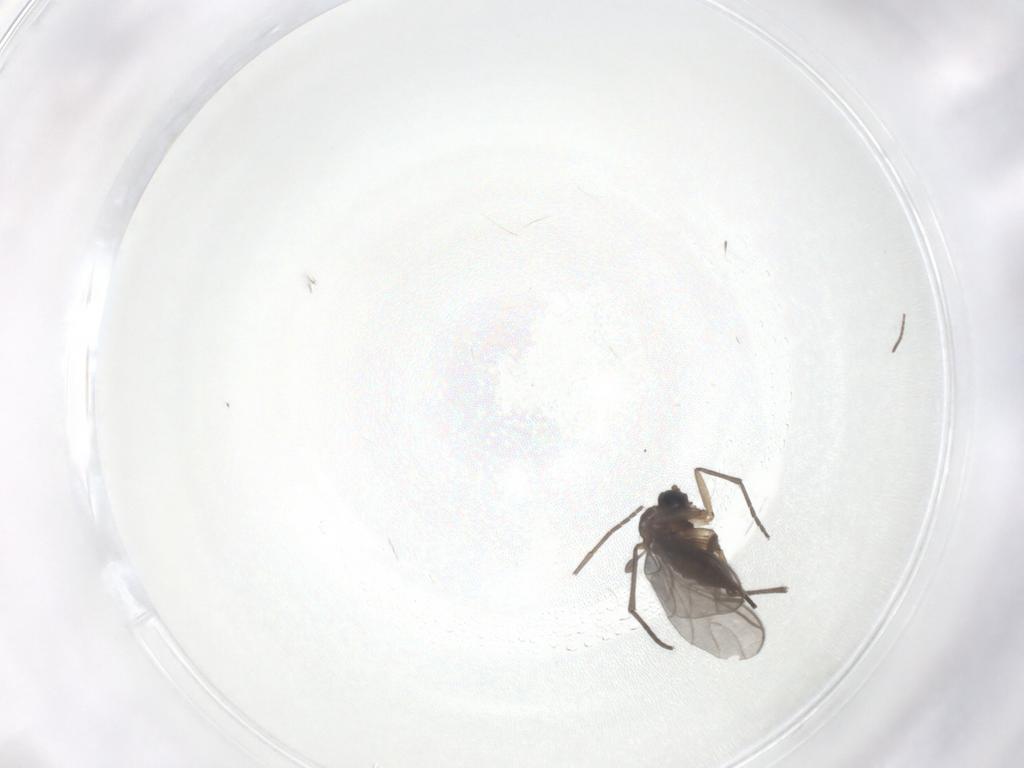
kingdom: Animalia
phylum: Arthropoda
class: Insecta
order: Diptera
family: Sciaridae
